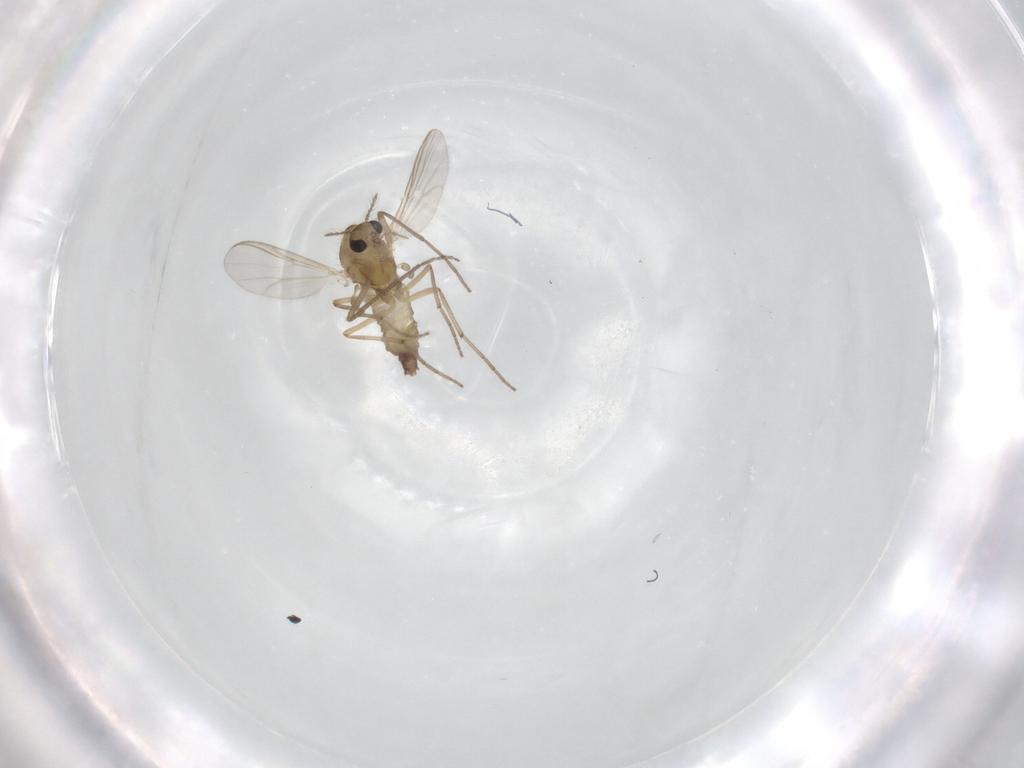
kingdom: Animalia
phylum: Arthropoda
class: Insecta
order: Diptera
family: Chironomidae
